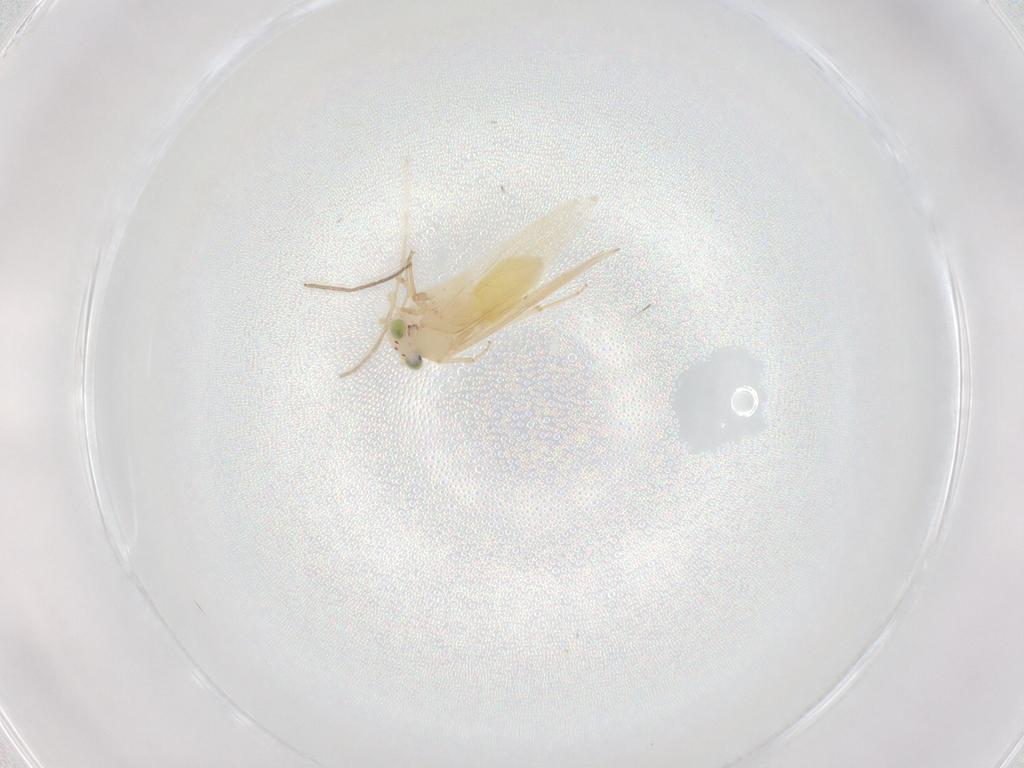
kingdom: Animalia
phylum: Arthropoda
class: Insecta
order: Psocodea
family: Lepidopsocidae
